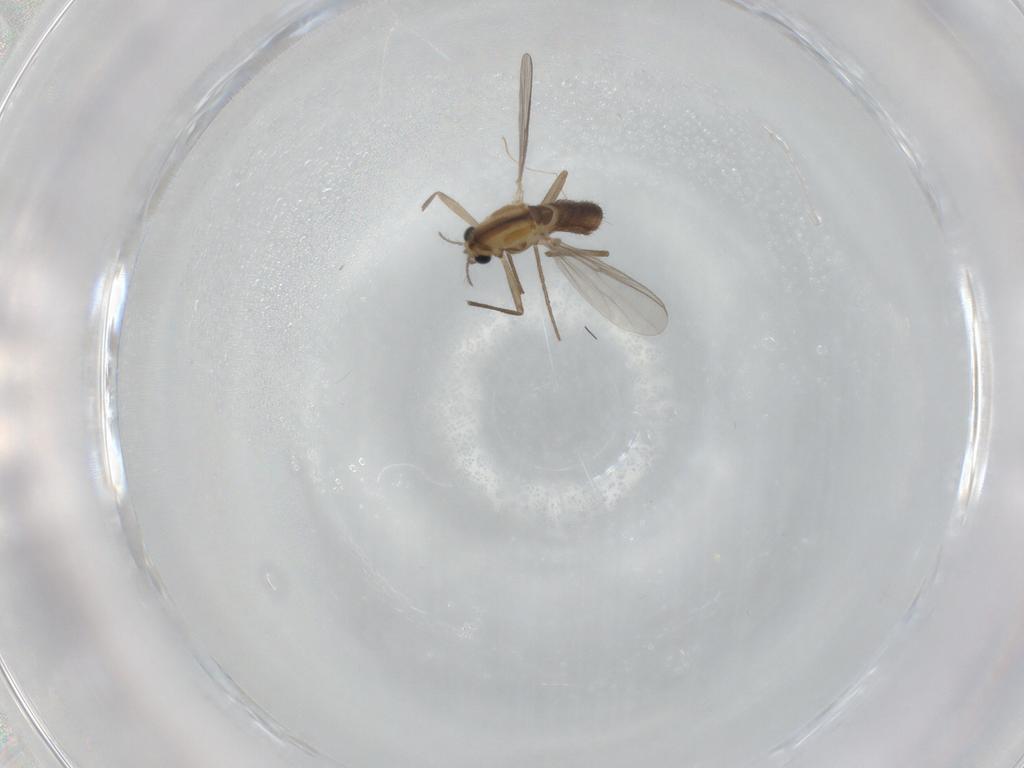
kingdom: Animalia
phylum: Arthropoda
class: Insecta
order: Diptera
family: Chironomidae
